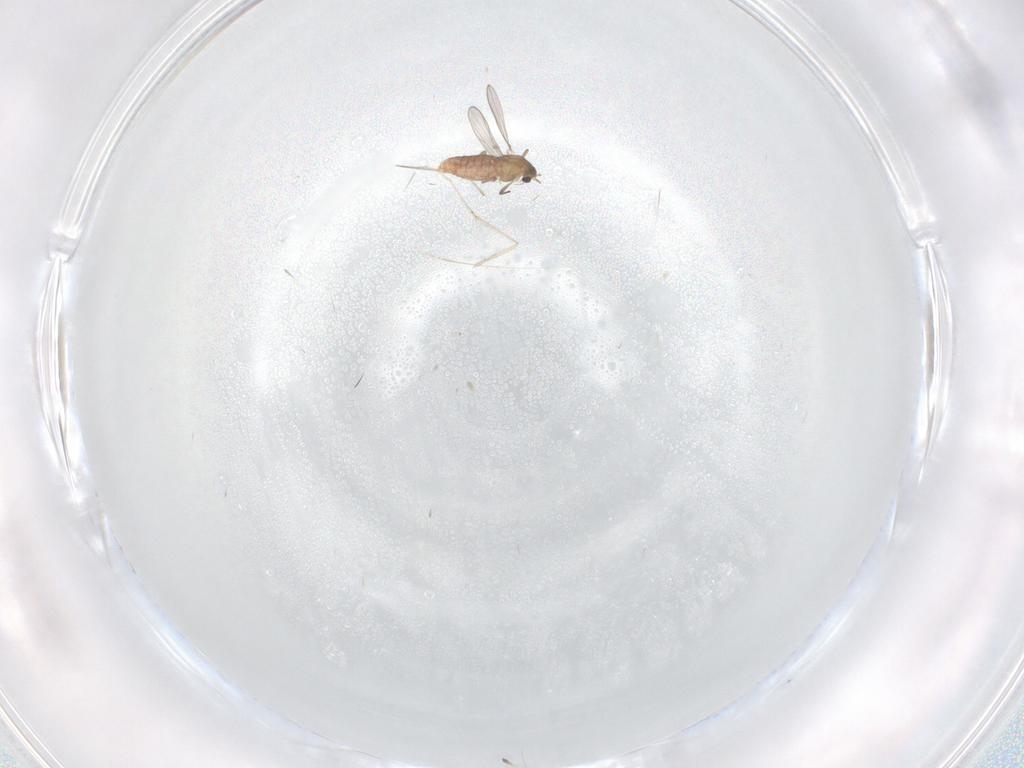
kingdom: Animalia
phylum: Arthropoda
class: Insecta
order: Diptera
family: Chironomidae
